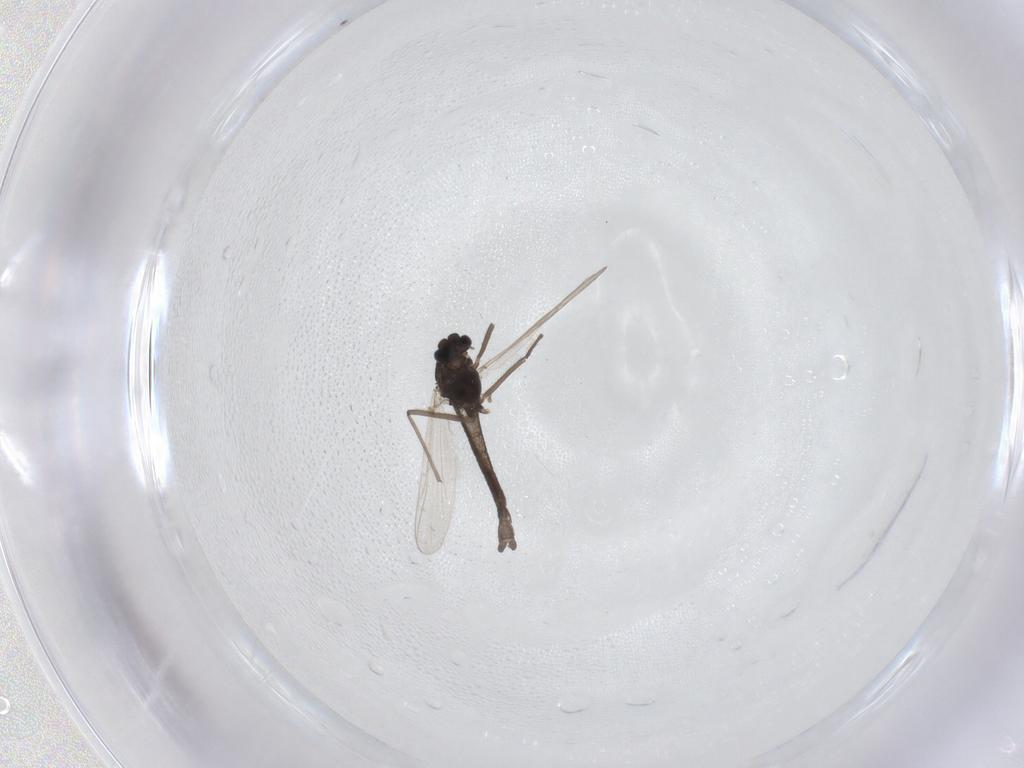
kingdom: Animalia
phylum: Arthropoda
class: Insecta
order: Diptera
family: Chironomidae
